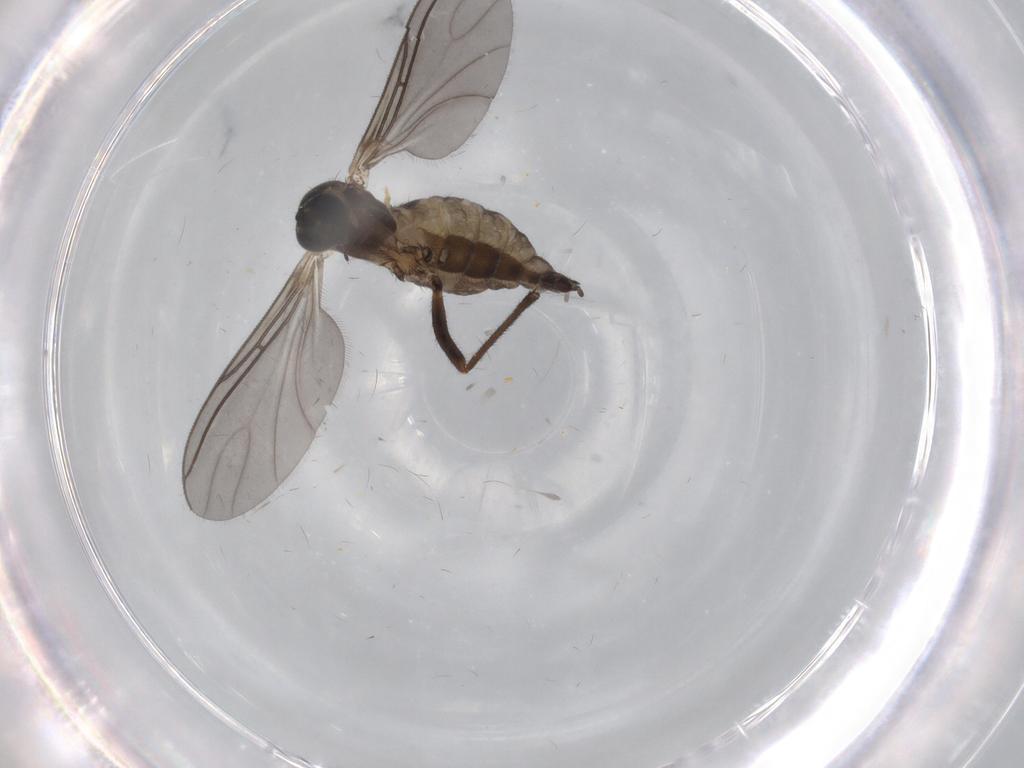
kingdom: Animalia
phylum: Arthropoda
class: Insecta
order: Diptera
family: Sciaridae
